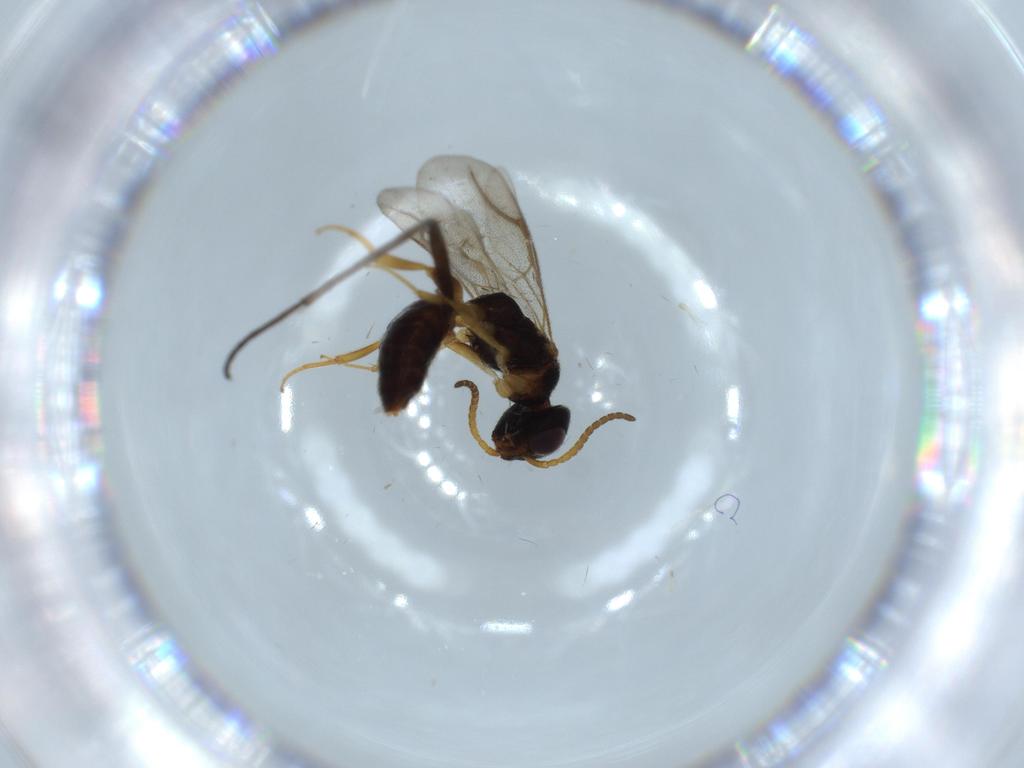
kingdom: Animalia
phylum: Arthropoda
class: Insecta
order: Hymenoptera
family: Bethylidae
